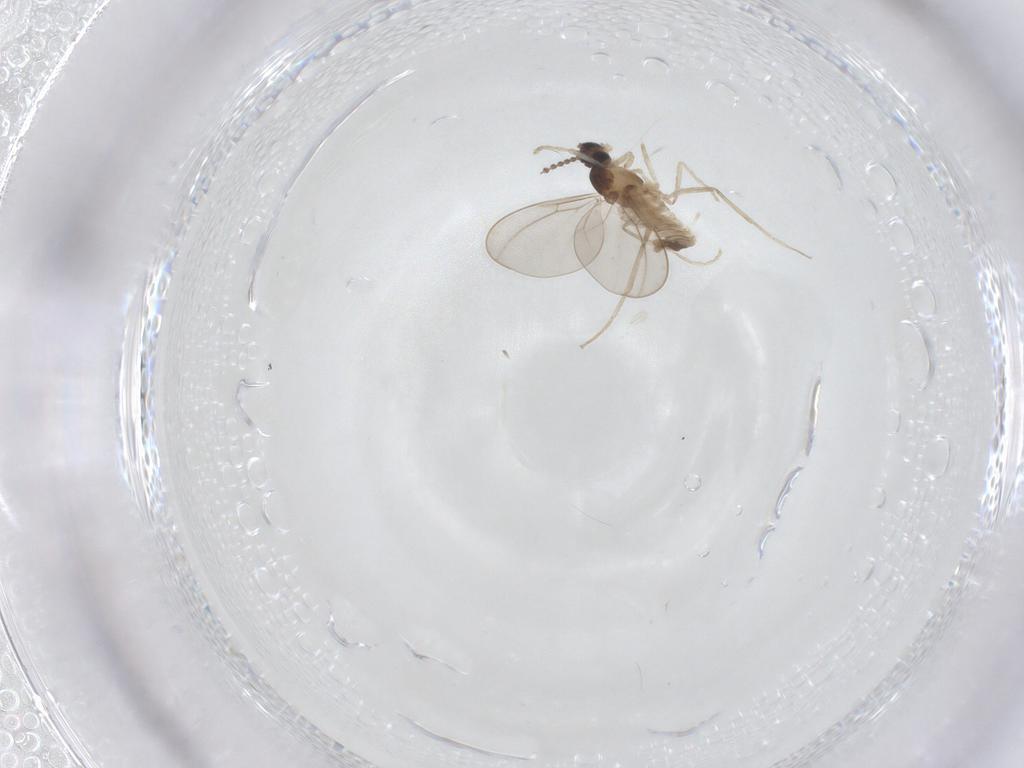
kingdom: Animalia
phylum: Arthropoda
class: Insecta
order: Diptera
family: Cecidomyiidae
